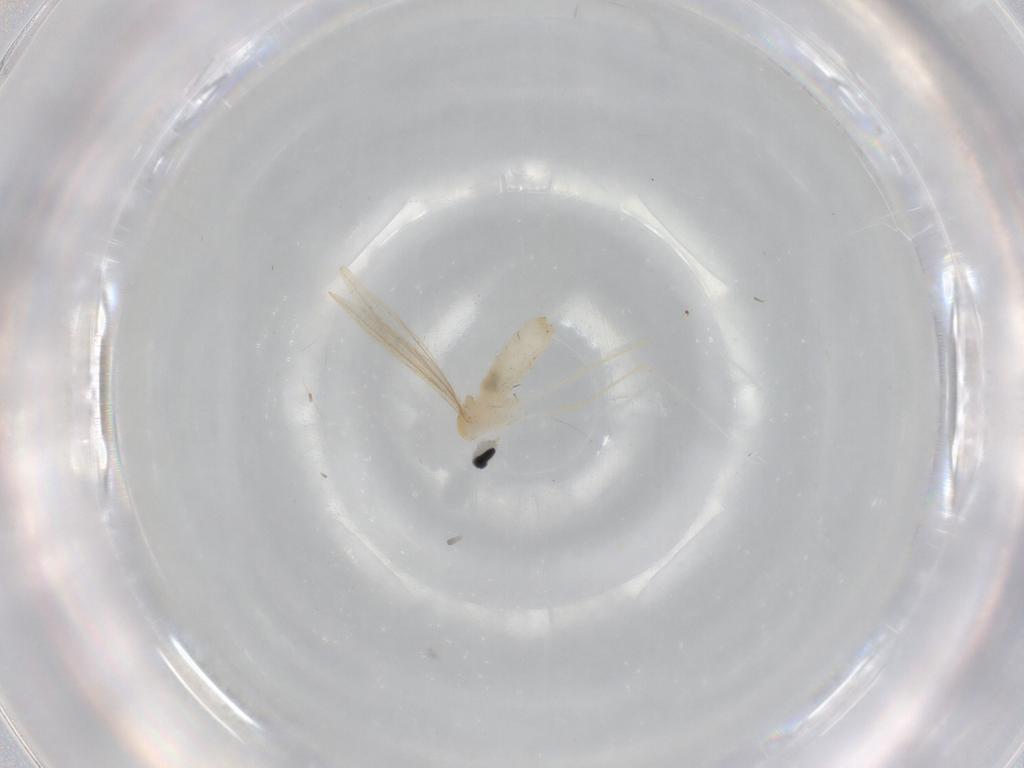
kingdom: Animalia
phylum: Arthropoda
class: Insecta
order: Diptera
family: Cecidomyiidae
